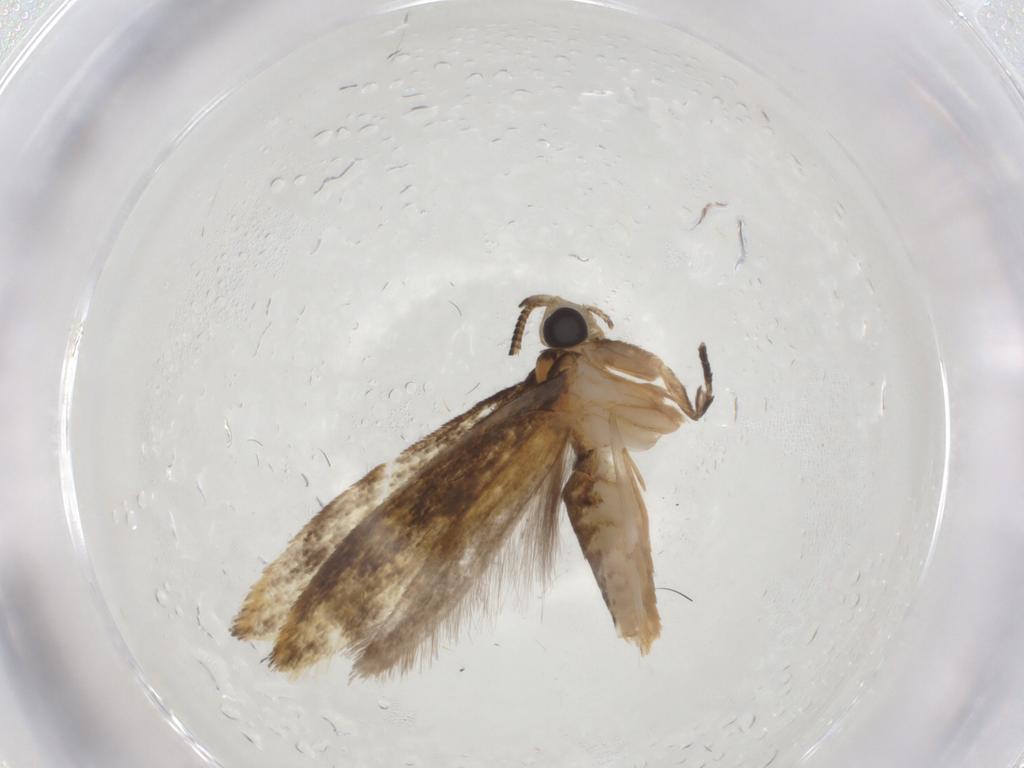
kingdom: Animalia
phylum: Arthropoda
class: Insecta
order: Lepidoptera
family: Tineidae
